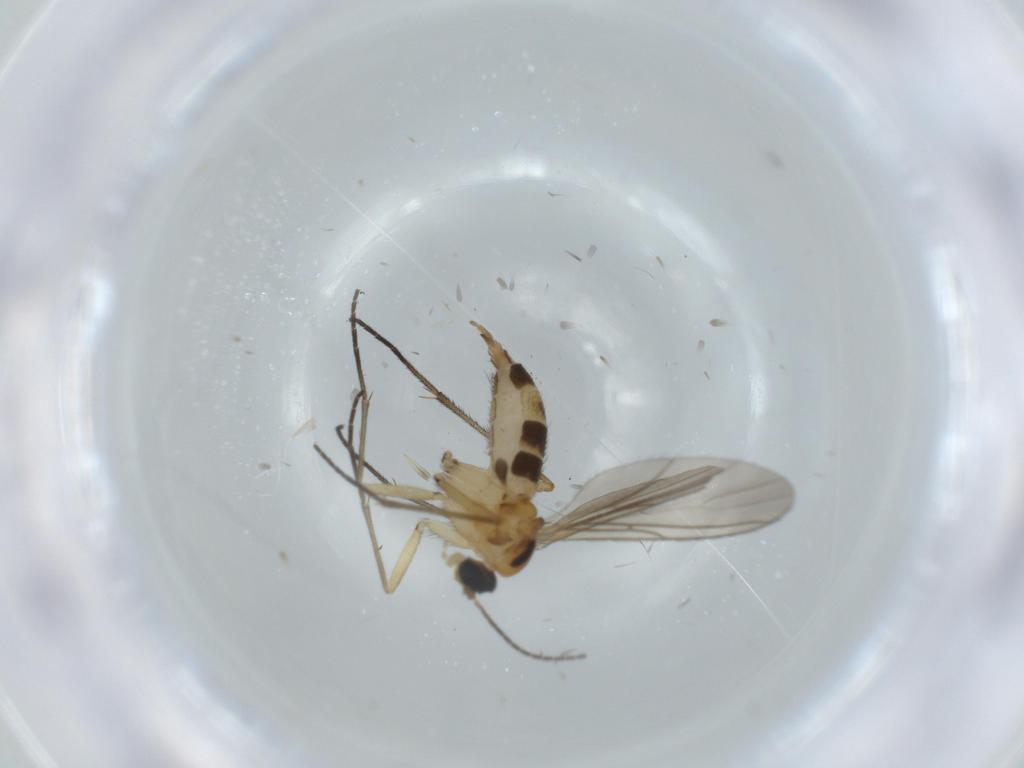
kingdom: Animalia
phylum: Arthropoda
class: Insecta
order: Diptera
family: Sciaridae
